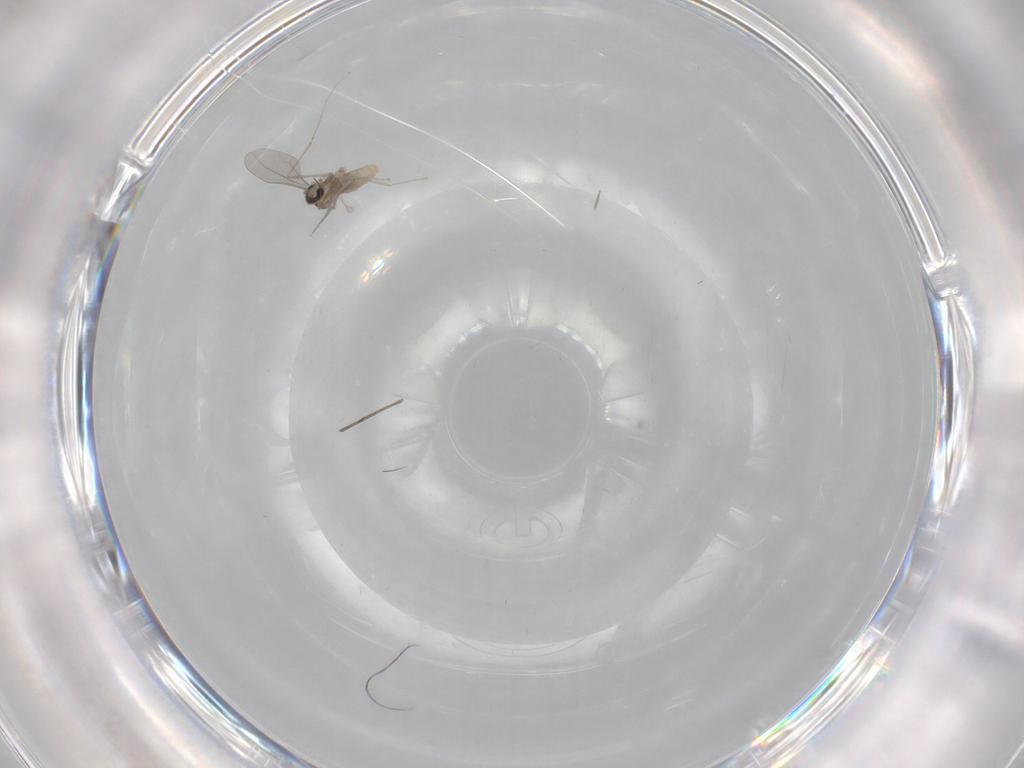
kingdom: Animalia
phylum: Arthropoda
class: Insecta
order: Diptera
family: Cecidomyiidae
